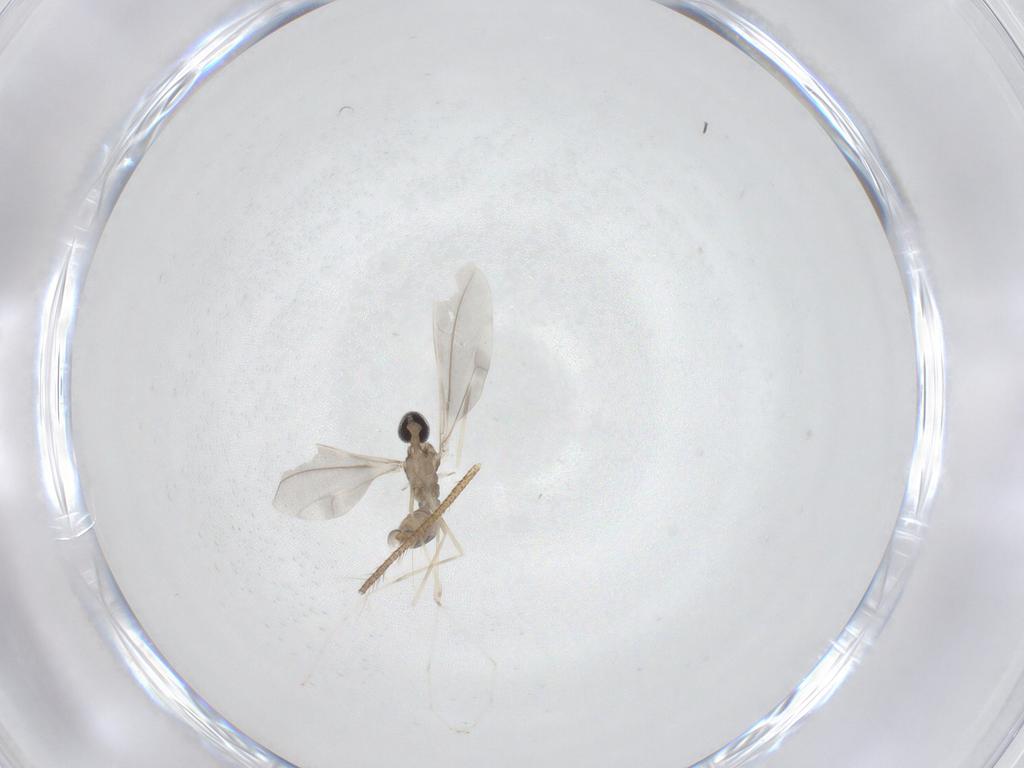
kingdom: Animalia
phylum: Arthropoda
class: Insecta
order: Diptera
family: Cecidomyiidae
